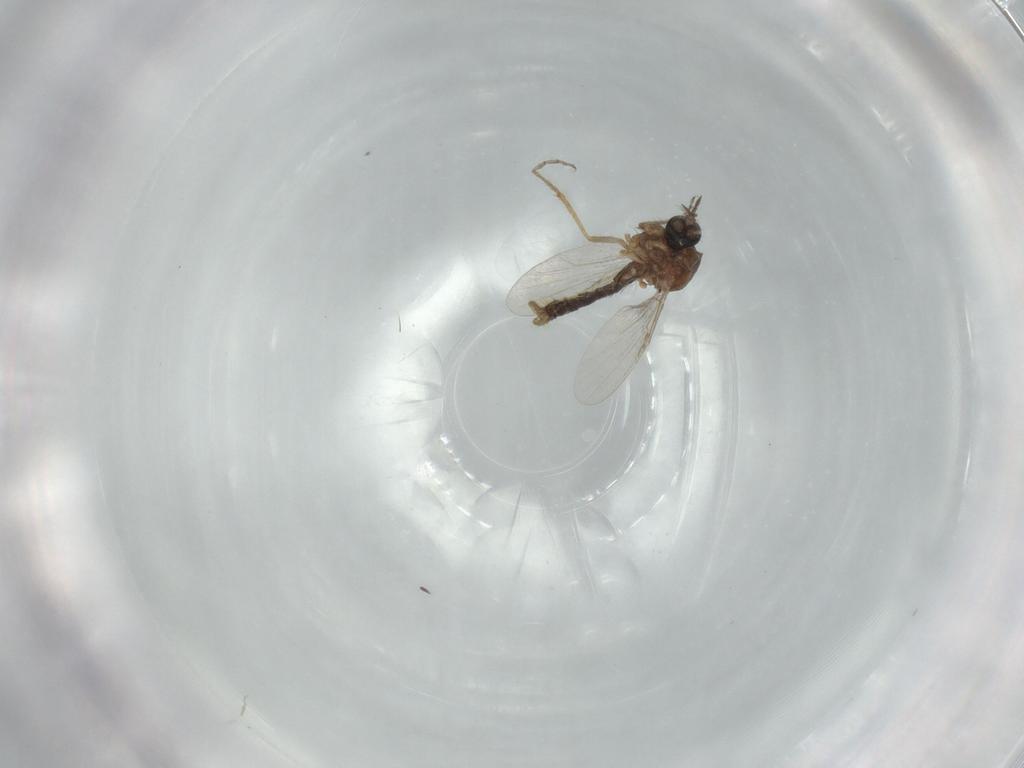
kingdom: Animalia
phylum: Arthropoda
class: Insecta
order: Diptera
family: Ceratopogonidae
